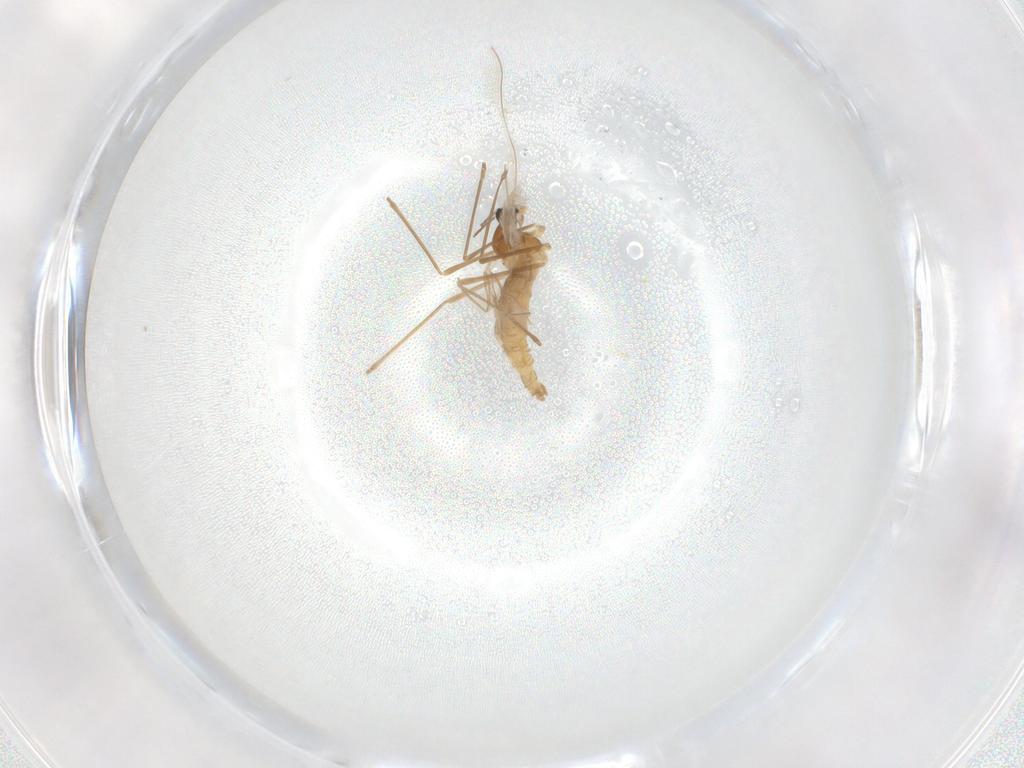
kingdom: Animalia
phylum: Arthropoda
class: Insecta
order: Diptera
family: Cecidomyiidae
